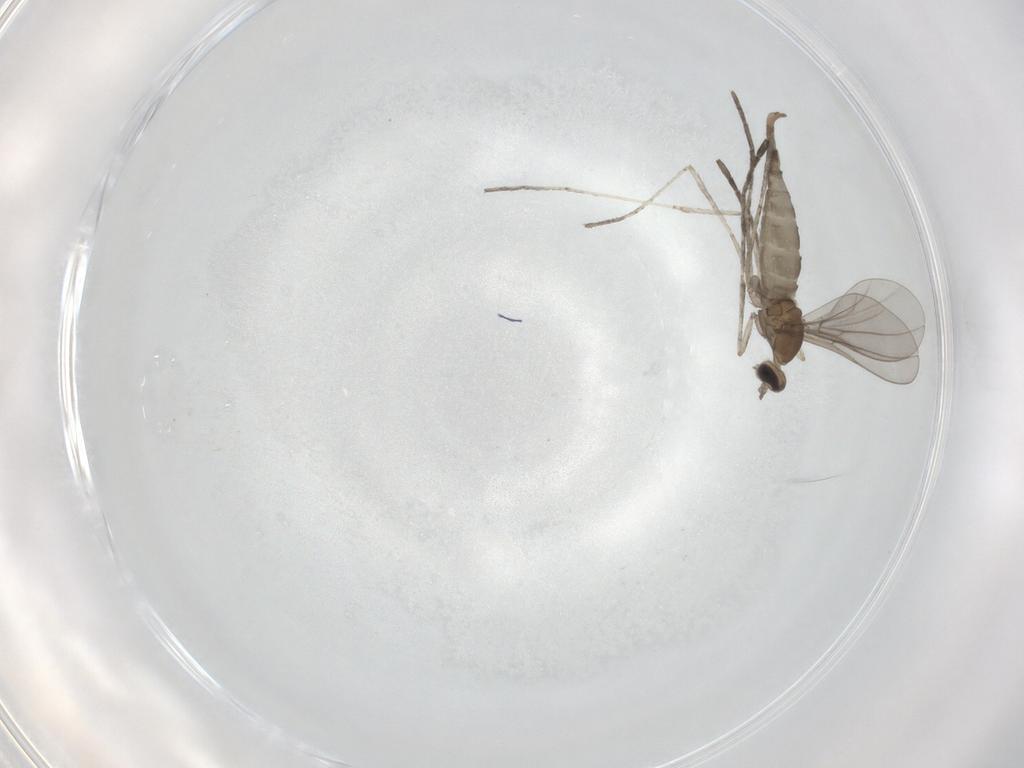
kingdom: Animalia
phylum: Arthropoda
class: Insecta
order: Diptera
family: Cecidomyiidae
